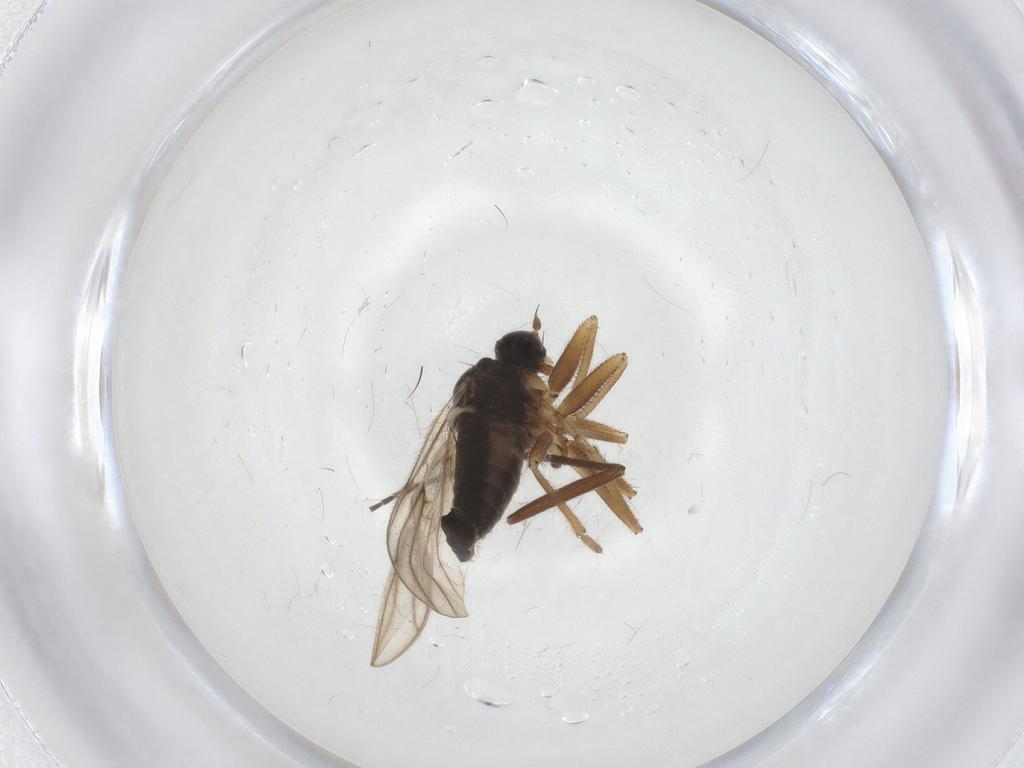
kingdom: Animalia
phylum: Arthropoda
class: Insecta
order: Diptera
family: Hybotidae
